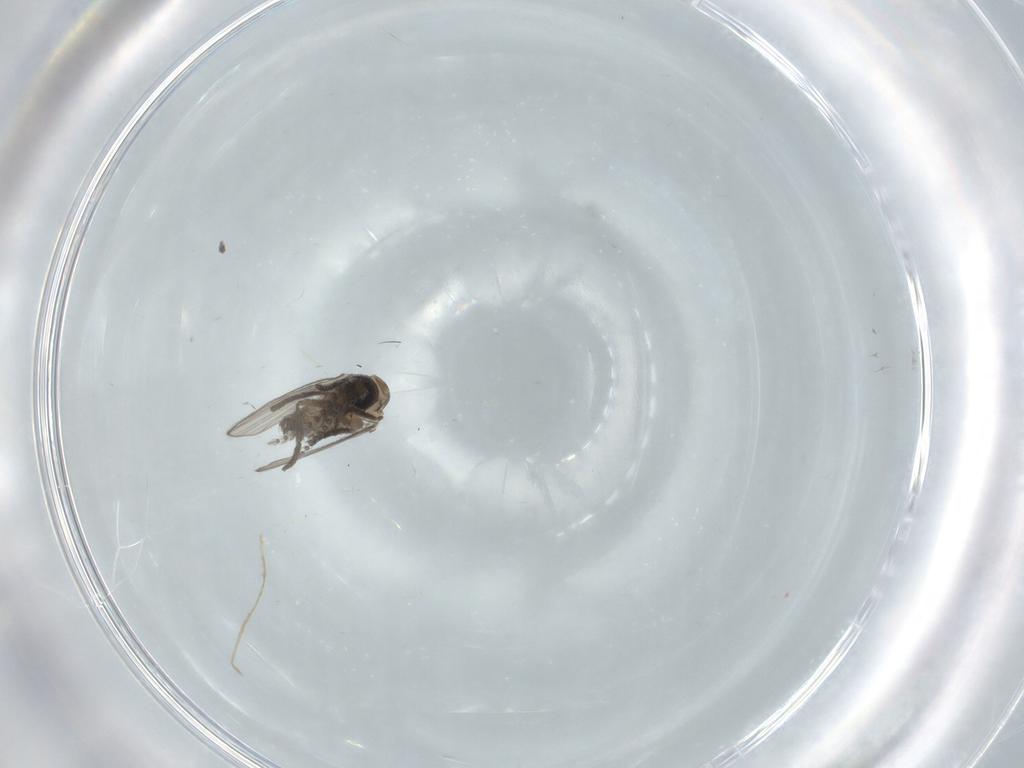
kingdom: Animalia
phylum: Arthropoda
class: Insecta
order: Diptera
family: Psychodidae
